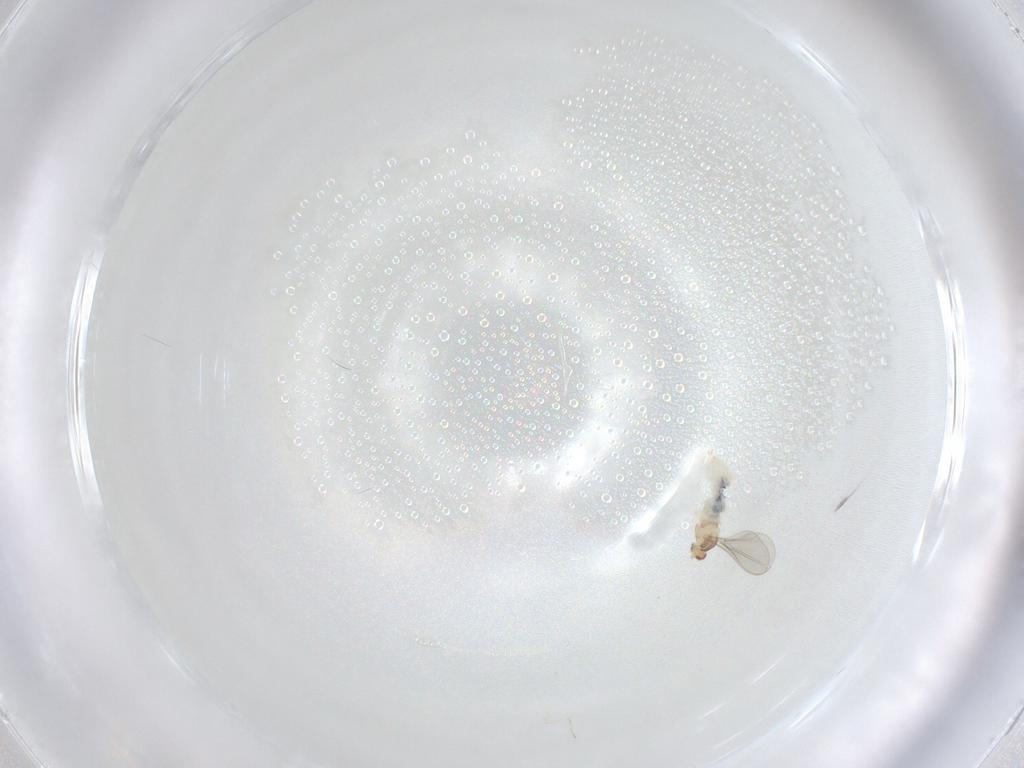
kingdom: Animalia
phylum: Arthropoda
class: Insecta
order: Diptera
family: Cecidomyiidae
